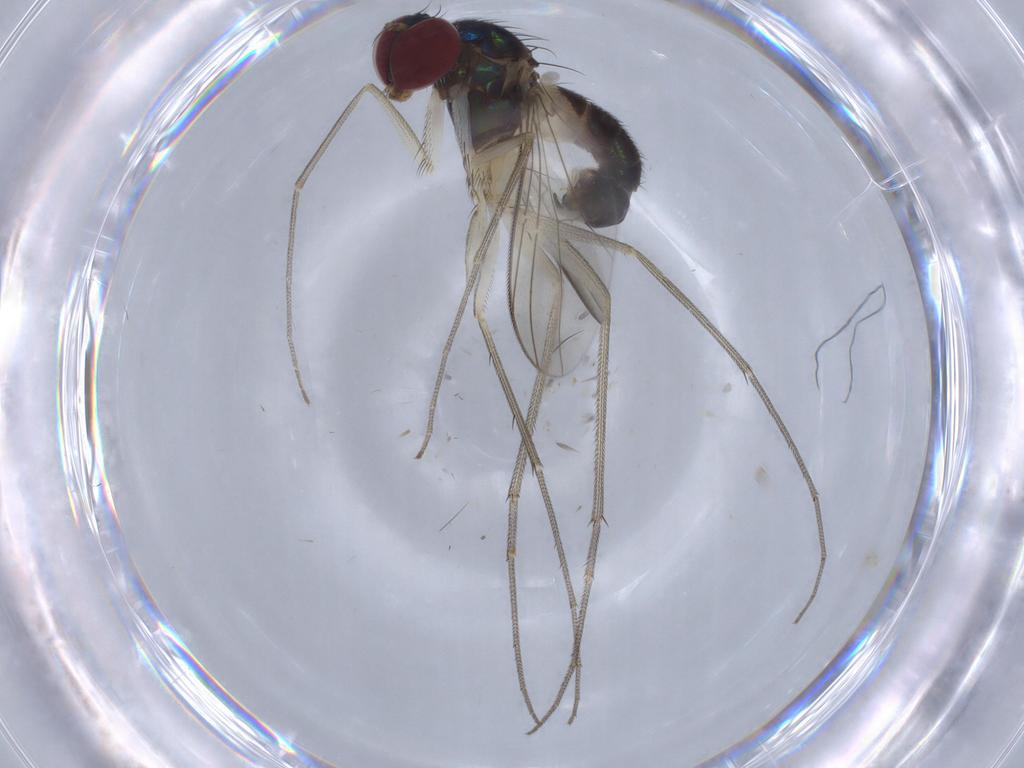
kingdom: Animalia
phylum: Arthropoda
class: Insecta
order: Diptera
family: Dolichopodidae
